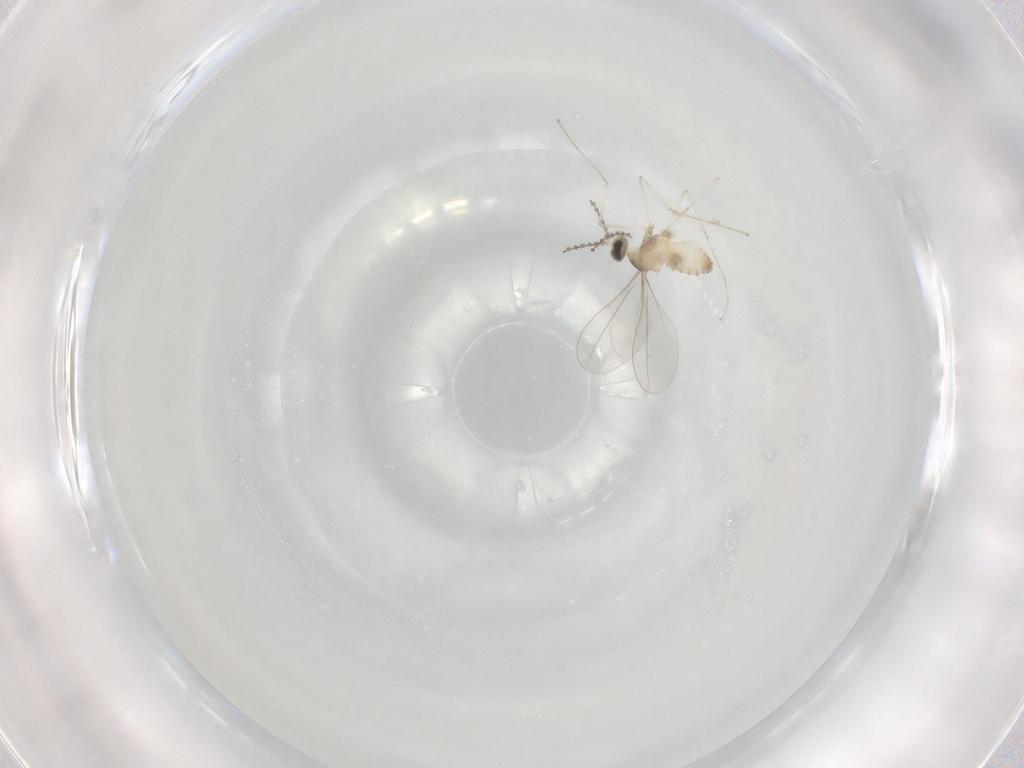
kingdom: Animalia
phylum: Arthropoda
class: Insecta
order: Diptera
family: Cecidomyiidae
